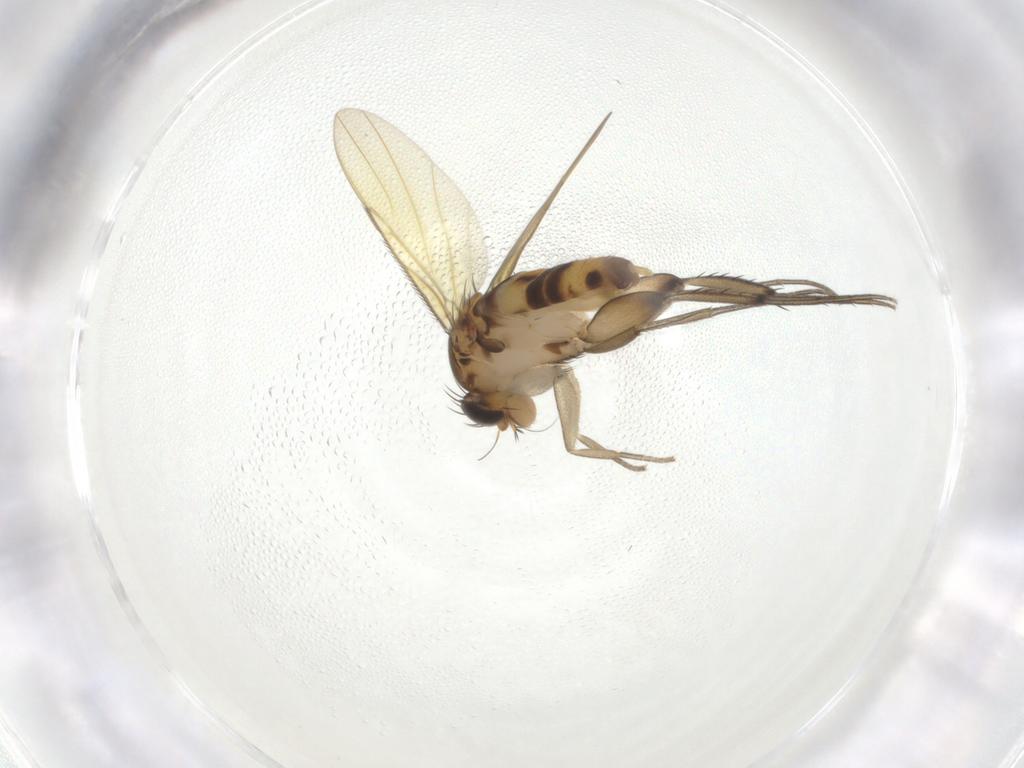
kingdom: Animalia
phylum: Arthropoda
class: Insecta
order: Diptera
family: Phoridae
